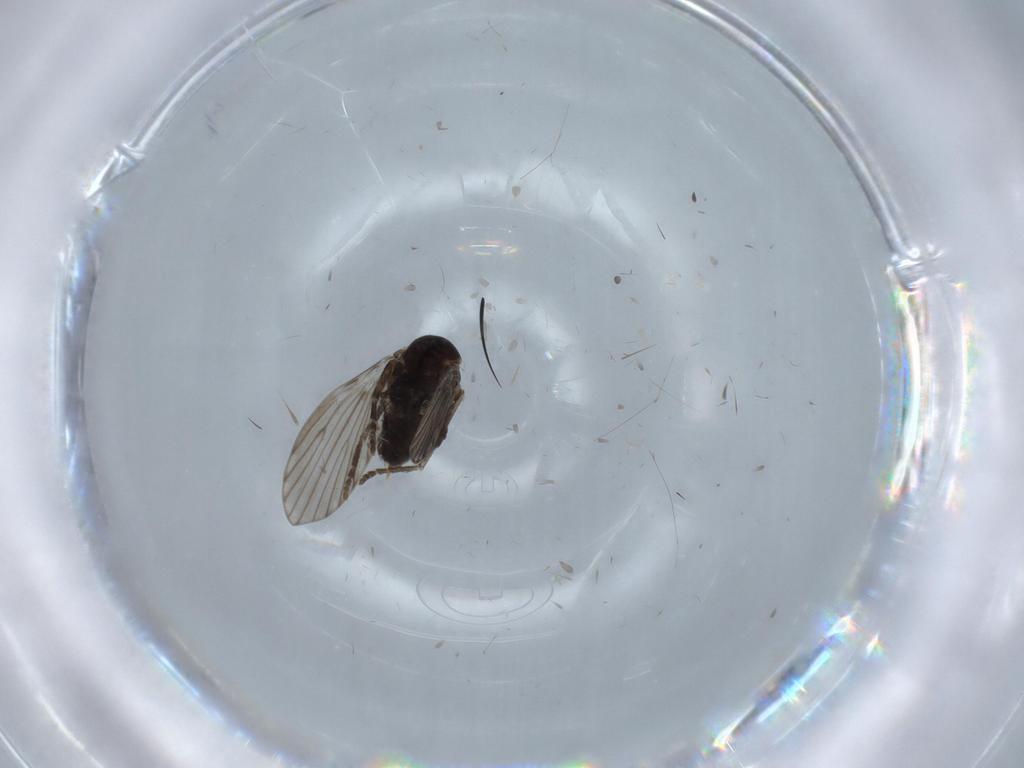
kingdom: Animalia
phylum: Arthropoda
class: Insecta
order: Diptera
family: Psychodidae
